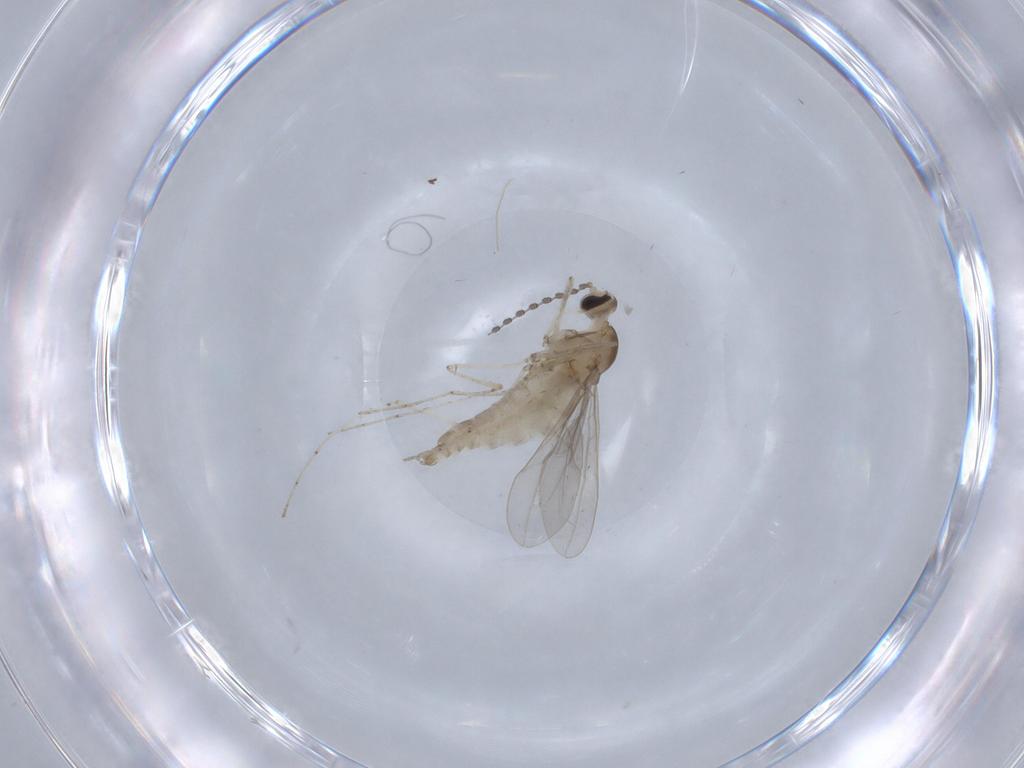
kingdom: Animalia
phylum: Arthropoda
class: Insecta
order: Diptera
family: Cecidomyiidae
